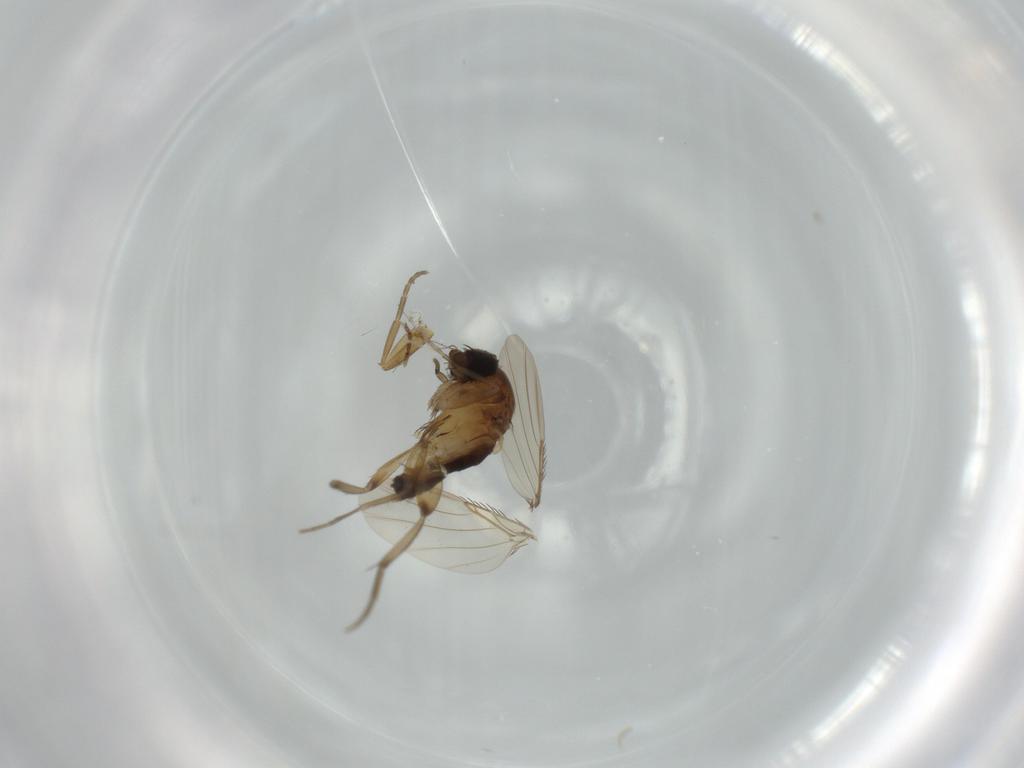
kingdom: Animalia
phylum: Arthropoda
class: Insecta
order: Diptera
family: Phoridae
